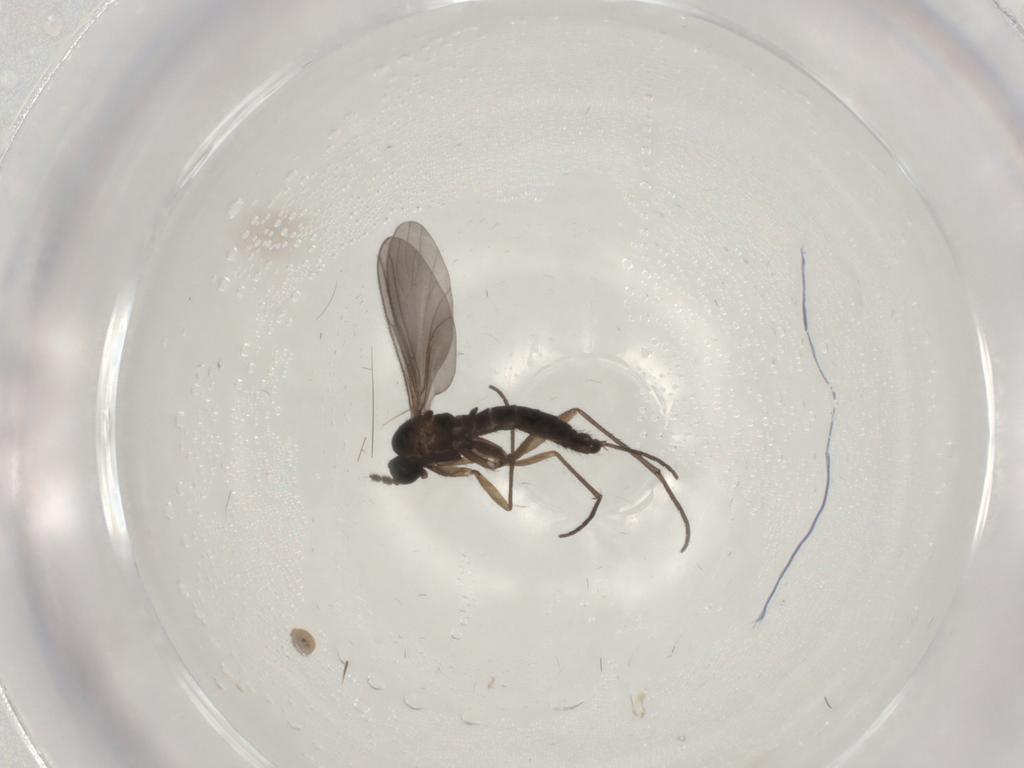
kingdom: Animalia
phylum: Arthropoda
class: Insecta
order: Diptera
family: Sciaridae
